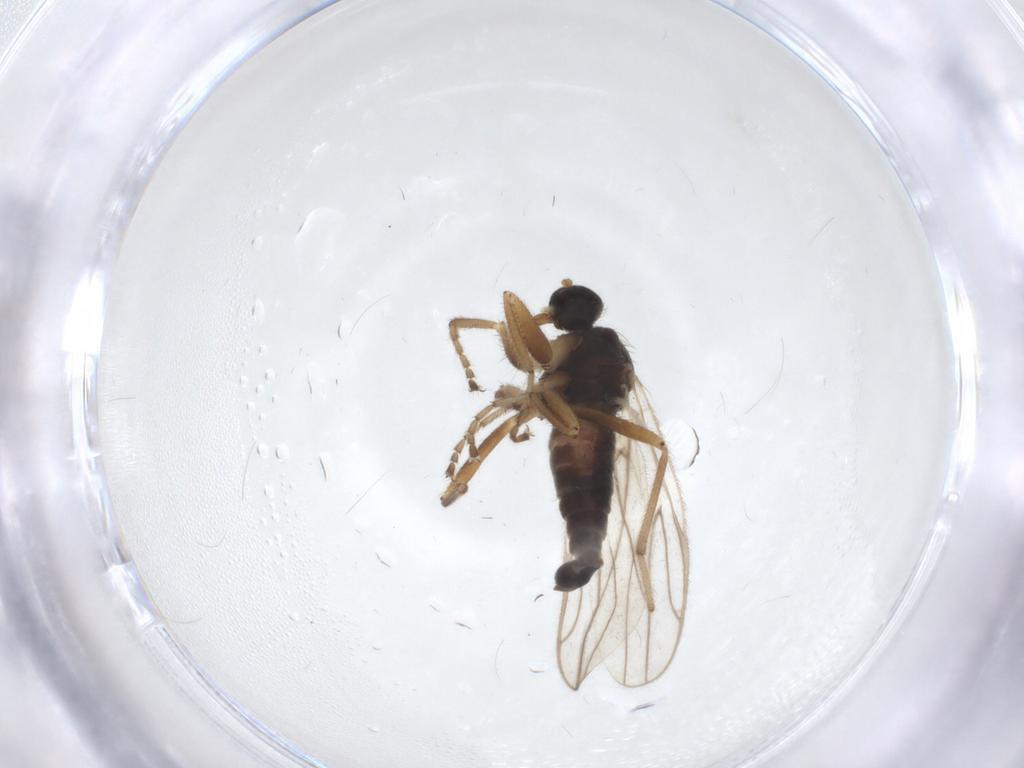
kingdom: Animalia
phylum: Arthropoda
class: Insecta
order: Diptera
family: Hybotidae
